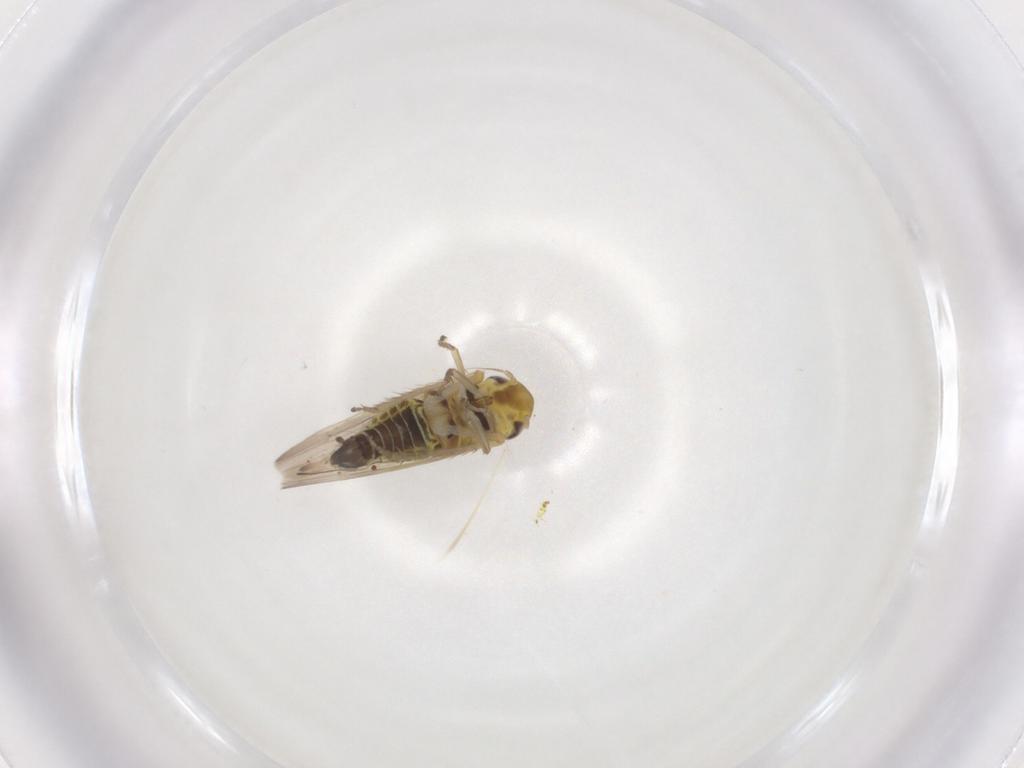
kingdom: Animalia
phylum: Arthropoda
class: Insecta
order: Hemiptera
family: Cicadellidae
